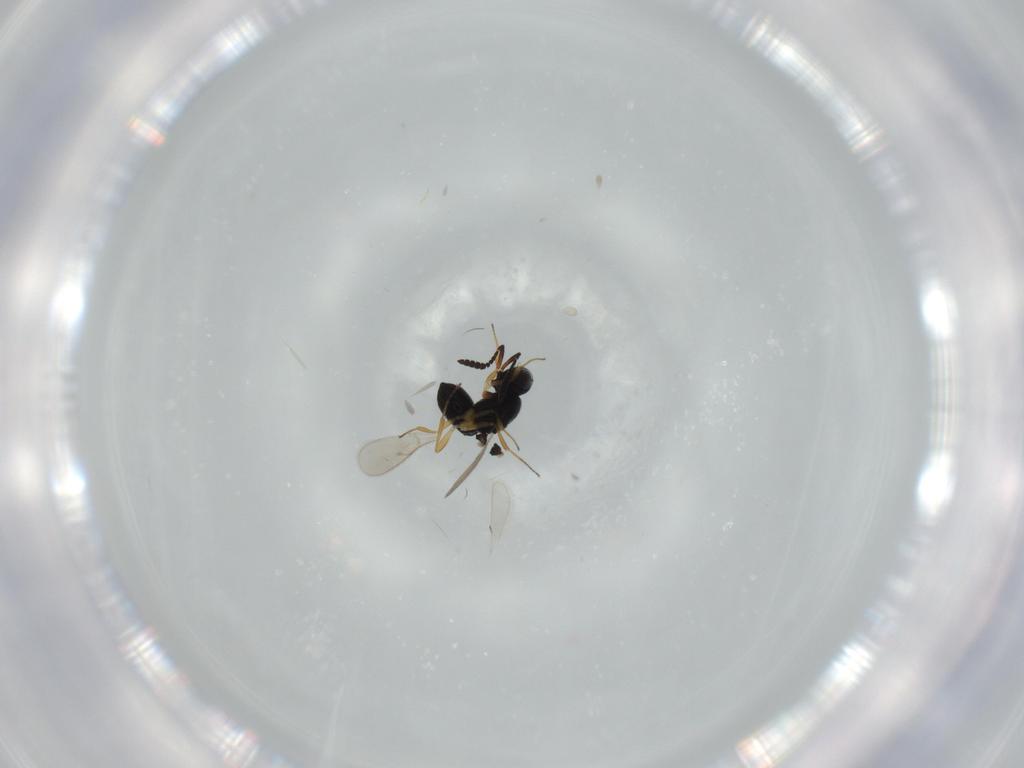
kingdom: Animalia
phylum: Arthropoda
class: Insecta
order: Hymenoptera
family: Scelionidae
